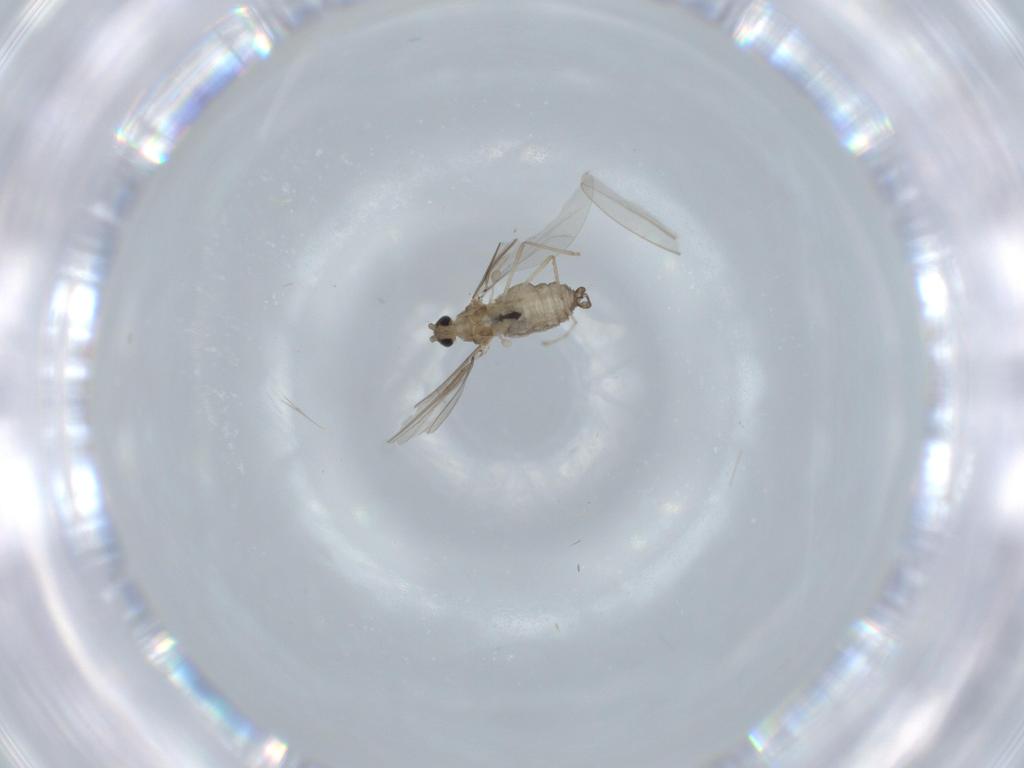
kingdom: Animalia
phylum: Arthropoda
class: Insecta
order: Diptera
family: Cecidomyiidae
